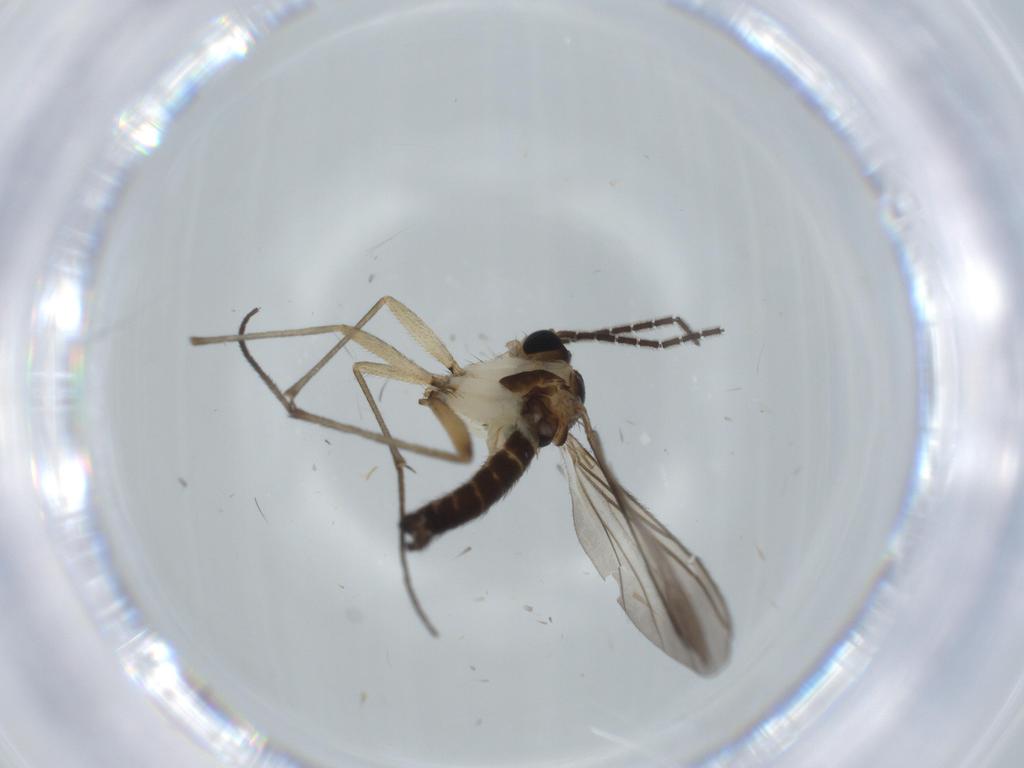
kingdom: Animalia
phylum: Arthropoda
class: Insecta
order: Diptera
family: Sciaridae
